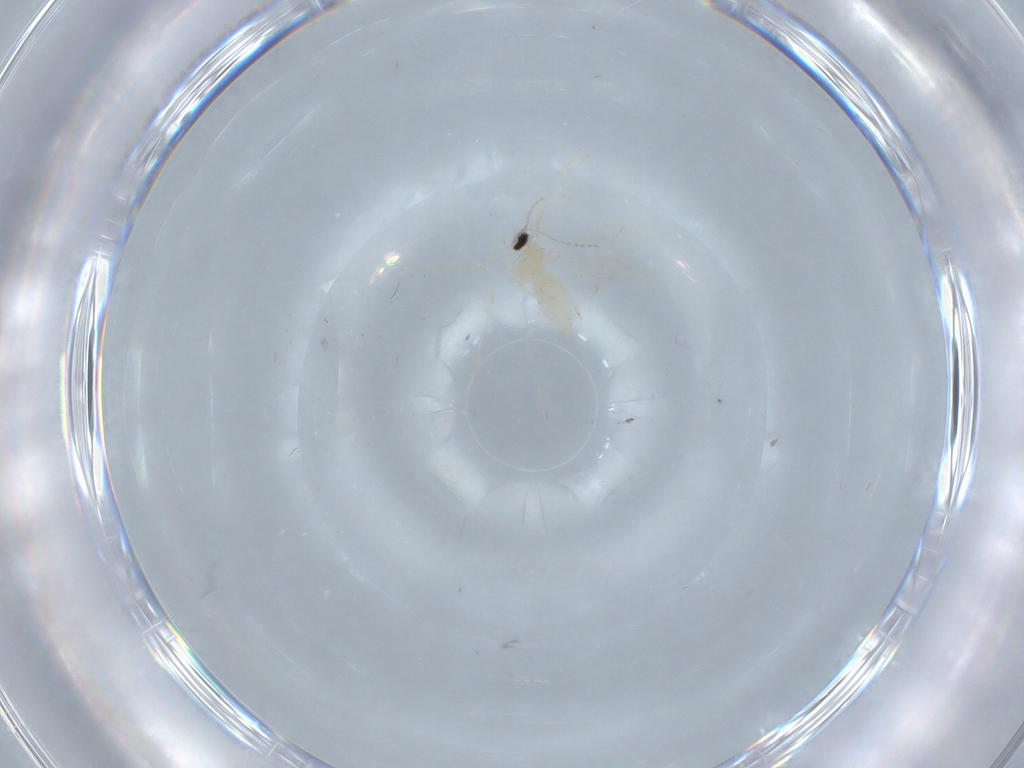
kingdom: Animalia
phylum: Arthropoda
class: Insecta
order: Diptera
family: Cecidomyiidae
